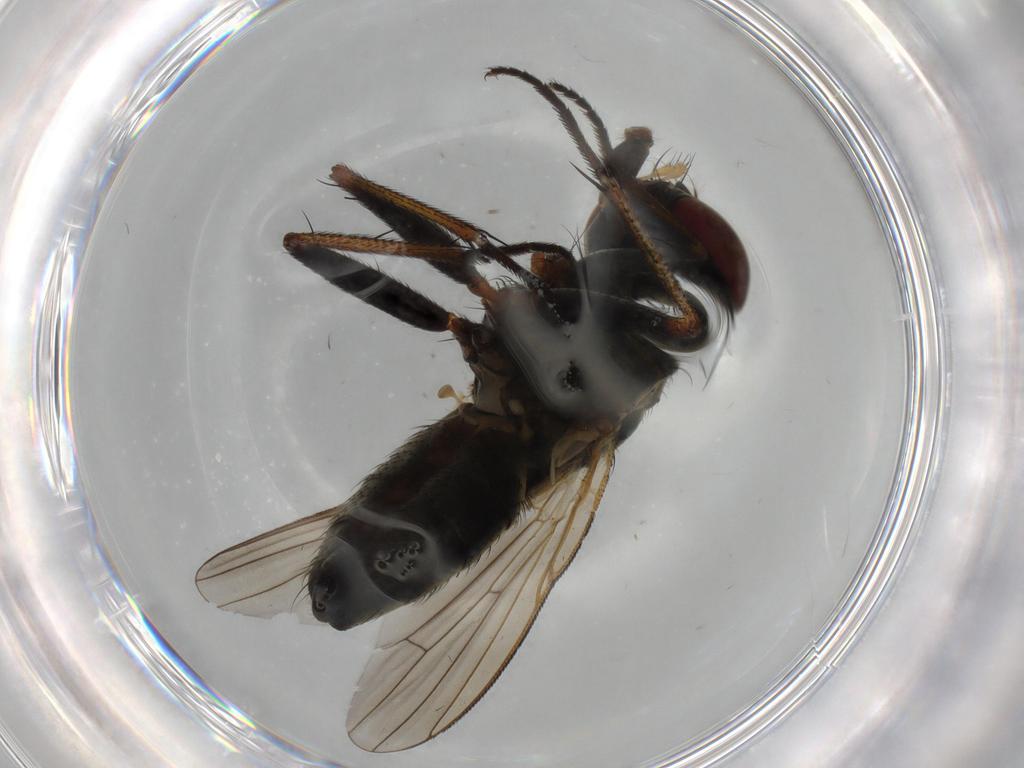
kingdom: Animalia
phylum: Arthropoda
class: Insecta
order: Diptera
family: Muscidae
